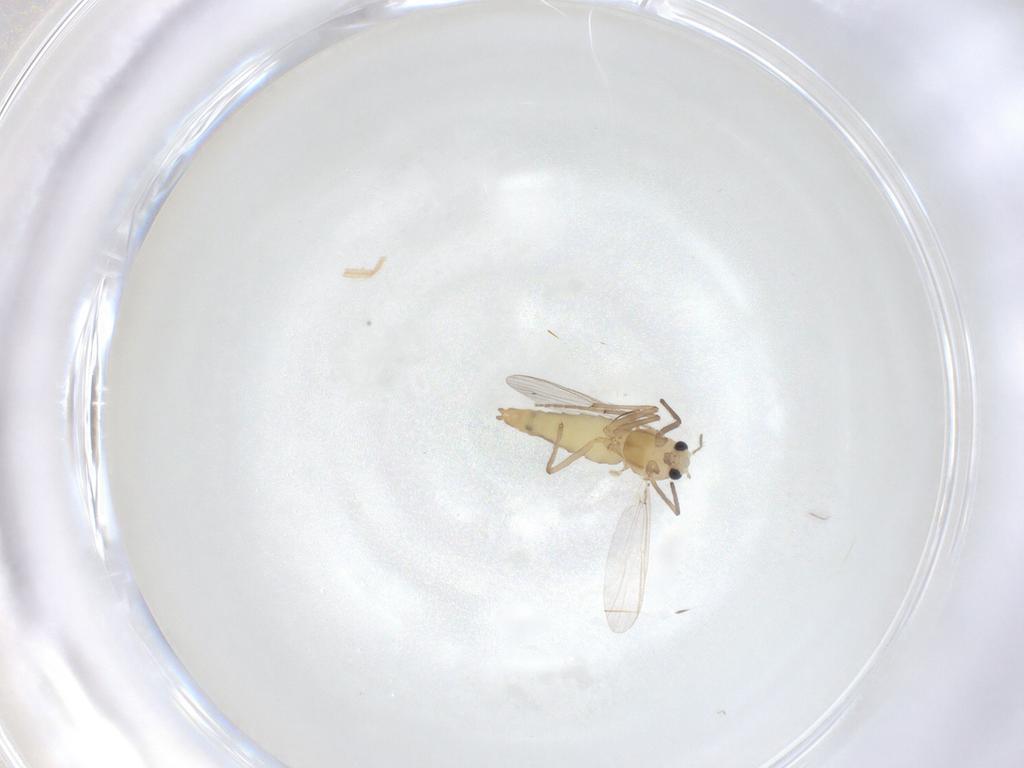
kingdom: Animalia
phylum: Arthropoda
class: Insecta
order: Diptera
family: Chironomidae
